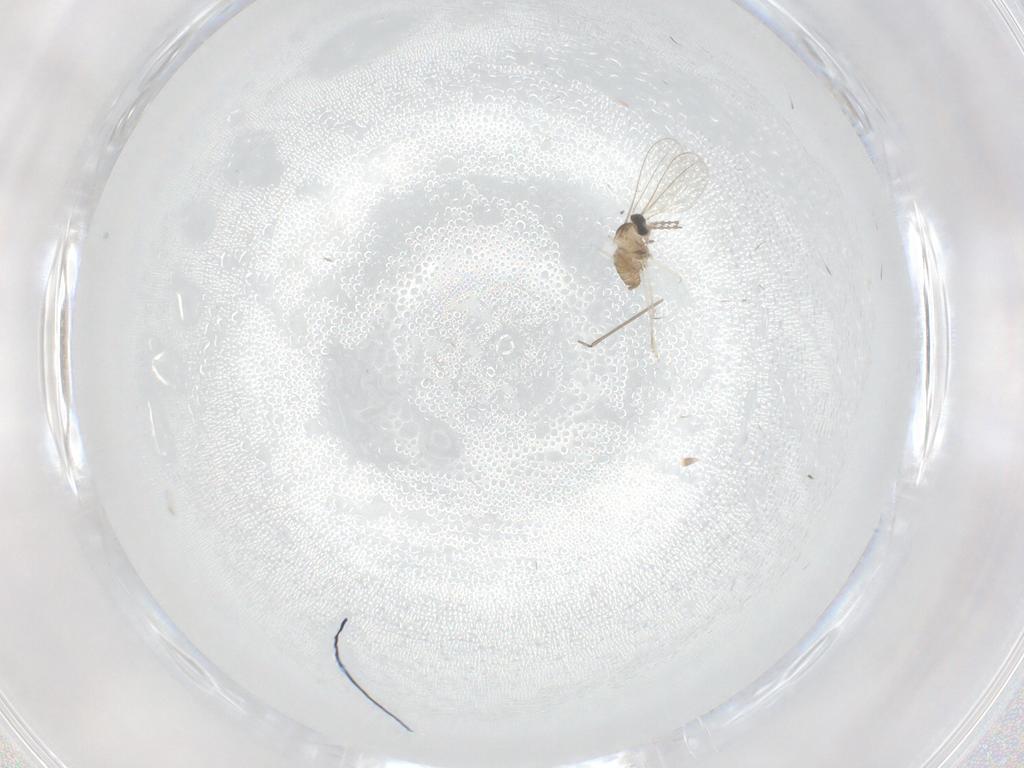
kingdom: Animalia
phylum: Arthropoda
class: Insecta
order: Diptera
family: Cecidomyiidae
